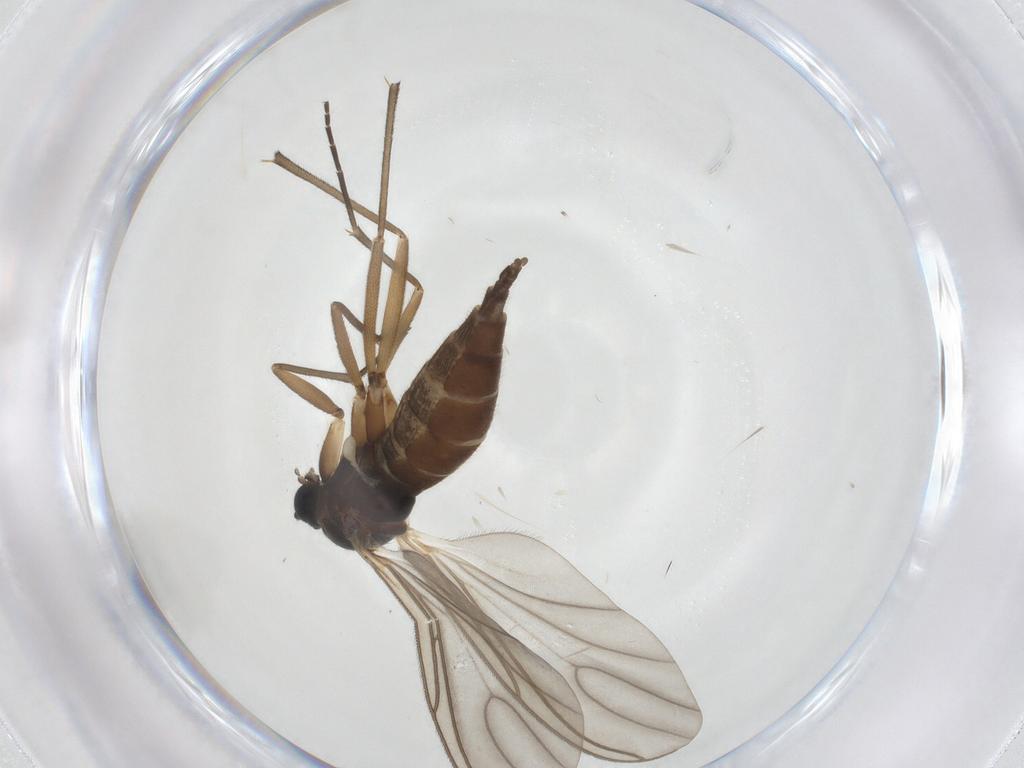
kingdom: Animalia
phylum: Arthropoda
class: Insecta
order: Diptera
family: Sciaridae
